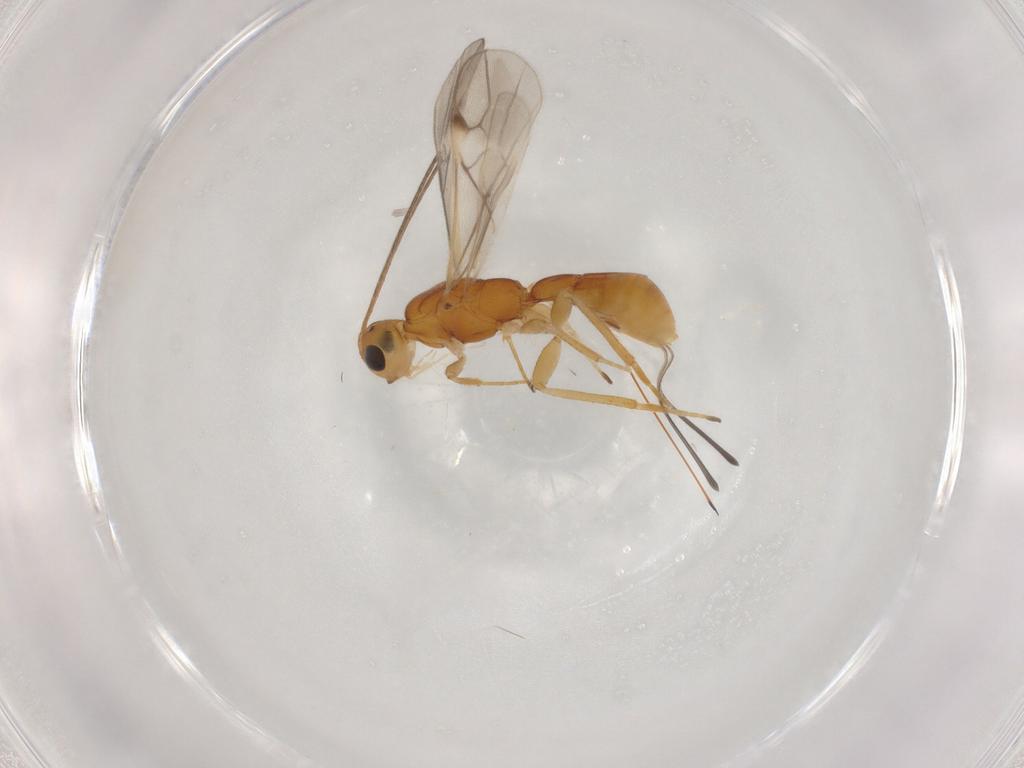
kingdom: Animalia
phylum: Arthropoda
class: Insecta
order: Hymenoptera
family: Braconidae
